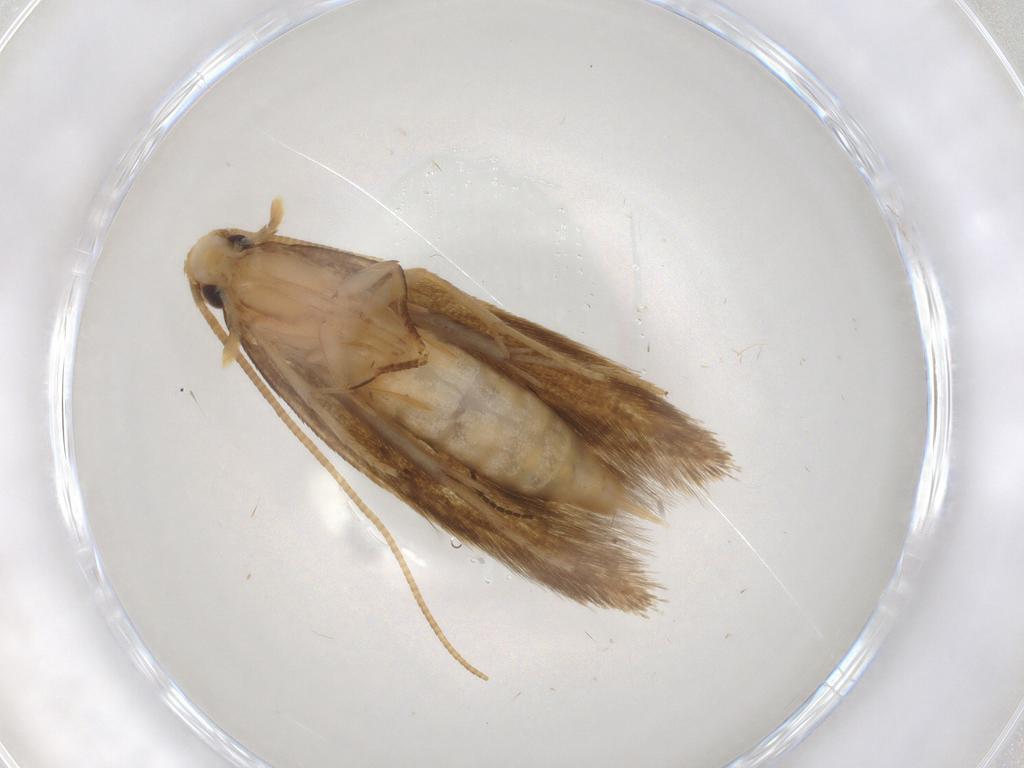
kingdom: Animalia
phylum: Arthropoda
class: Insecta
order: Lepidoptera
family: Tineidae
